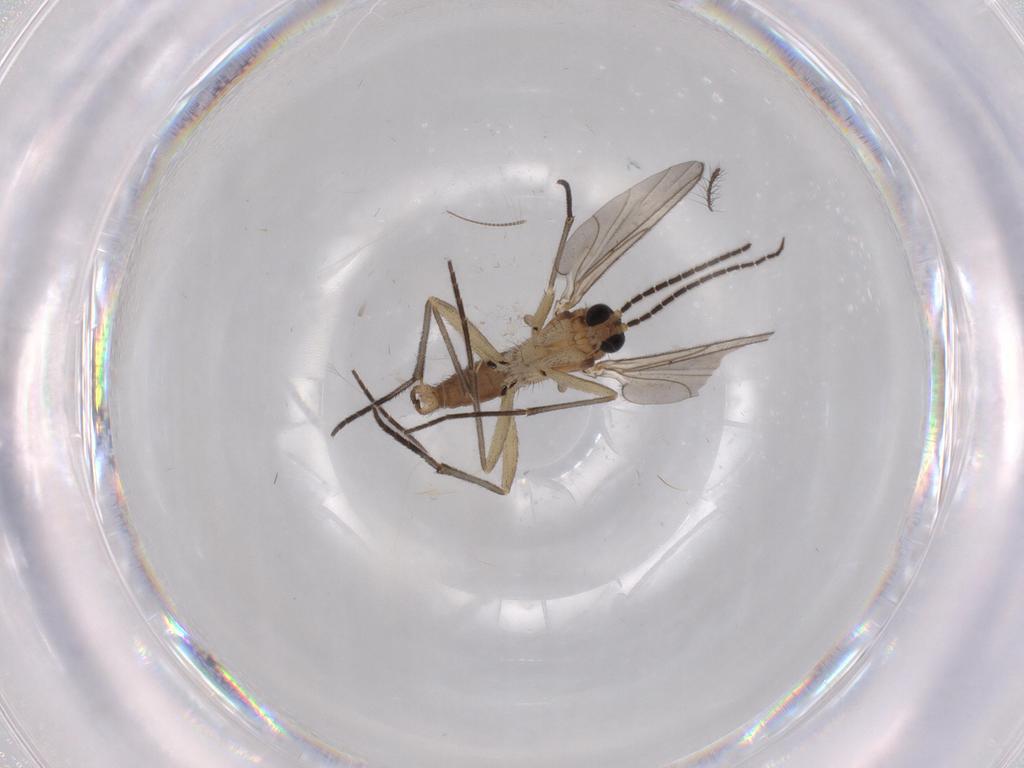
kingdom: Animalia
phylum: Arthropoda
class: Insecta
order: Diptera
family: Sciaridae
